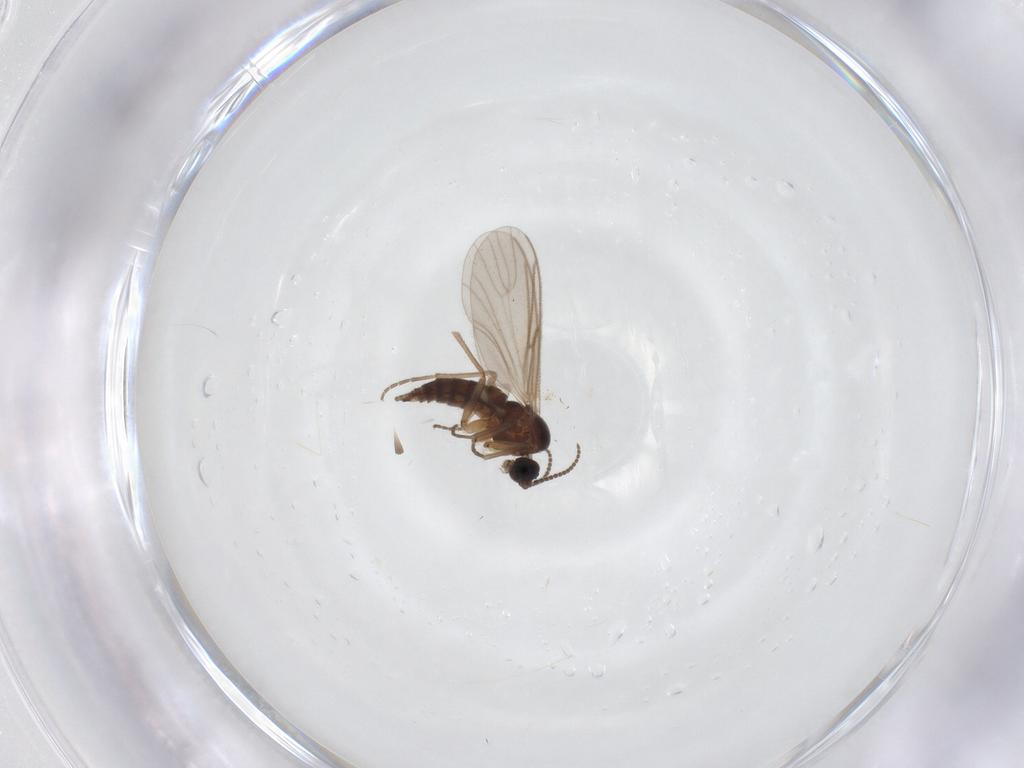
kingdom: Animalia
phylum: Arthropoda
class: Insecta
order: Diptera
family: Sciaridae
